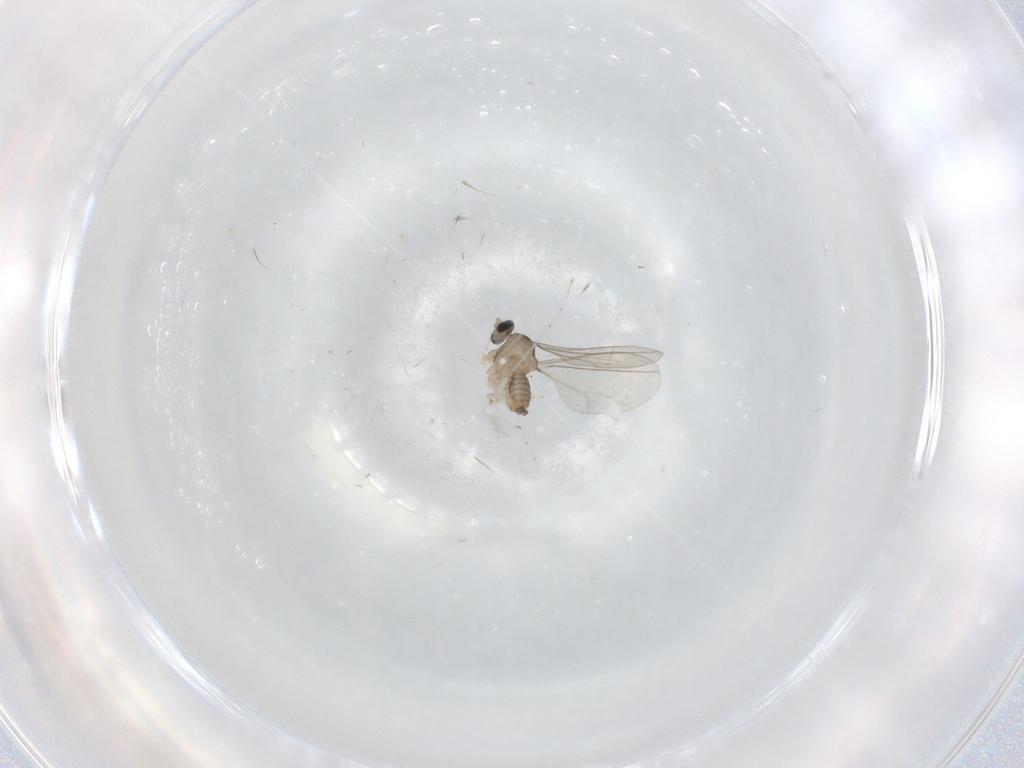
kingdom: Animalia
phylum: Arthropoda
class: Insecta
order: Diptera
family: Cecidomyiidae
